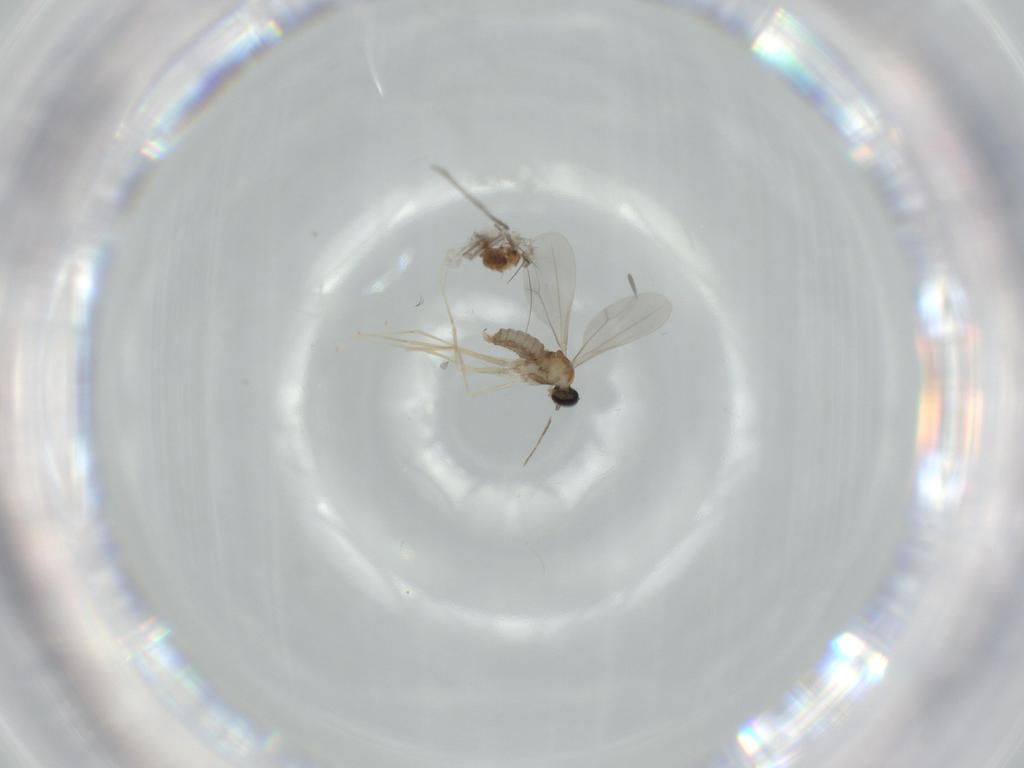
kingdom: Animalia
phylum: Arthropoda
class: Insecta
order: Diptera
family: Chironomidae
